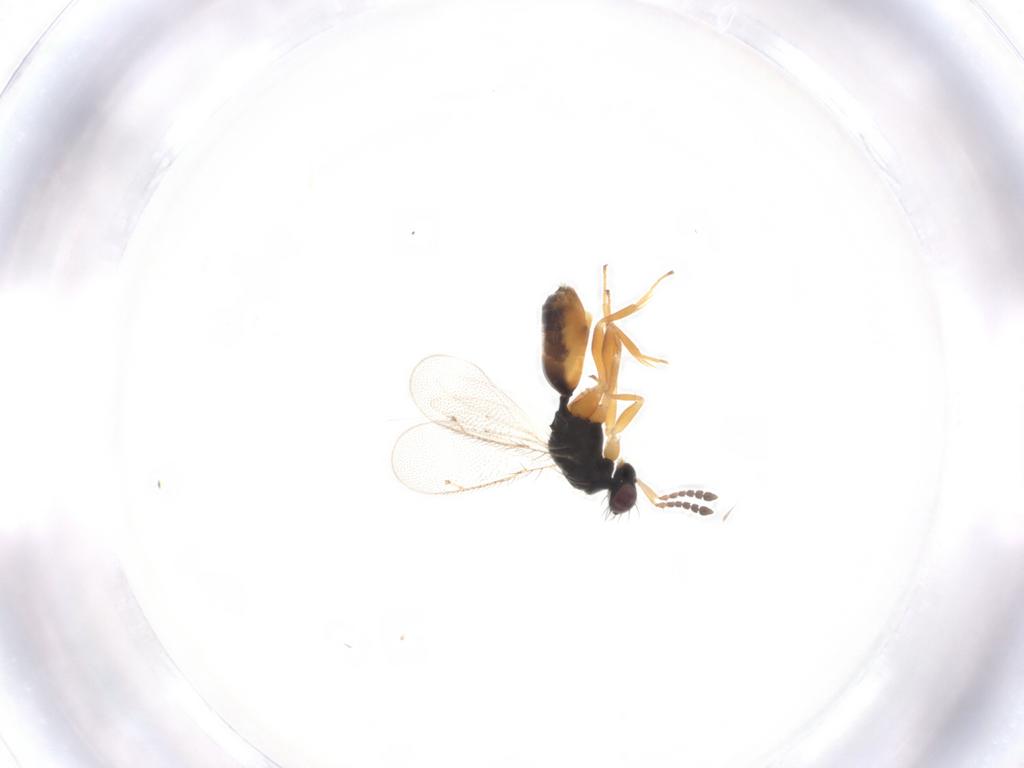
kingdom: Animalia
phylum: Arthropoda
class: Insecta
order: Hymenoptera
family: Eulophidae
